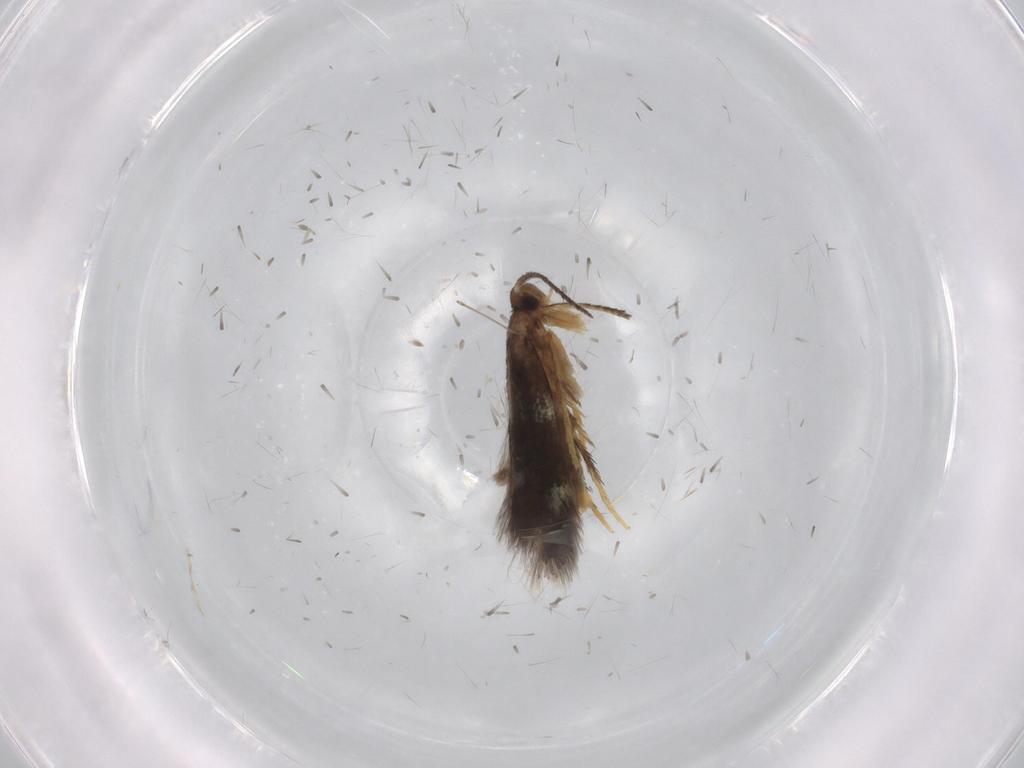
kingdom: Animalia
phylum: Arthropoda
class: Insecta
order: Lepidoptera
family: Heliozelidae
